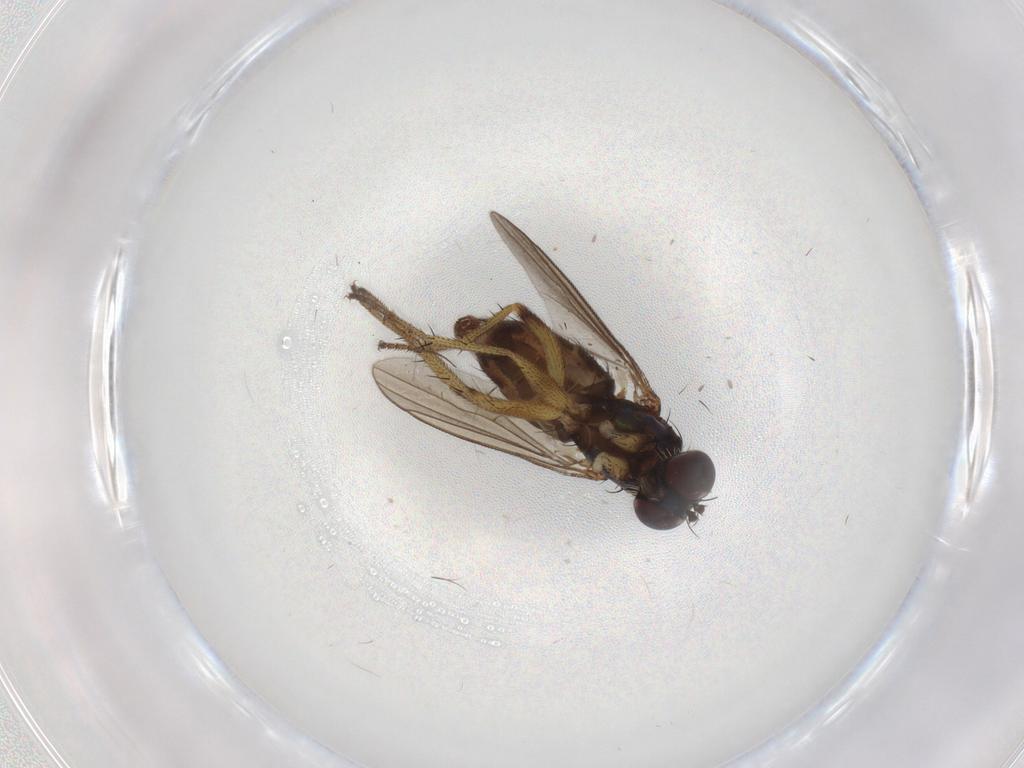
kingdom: Animalia
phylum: Arthropoda
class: Insecta
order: Diptera
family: Dolichopodidae
